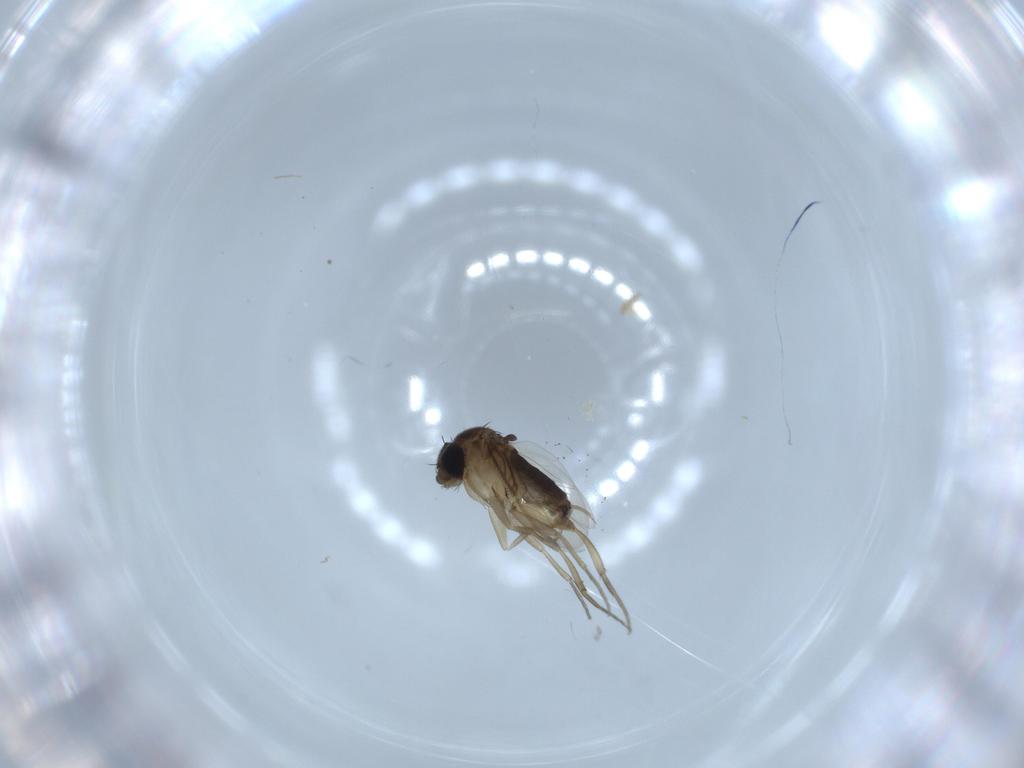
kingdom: Animalia
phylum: Arthropoda
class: Insecta
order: Diptera
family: Phoridae
